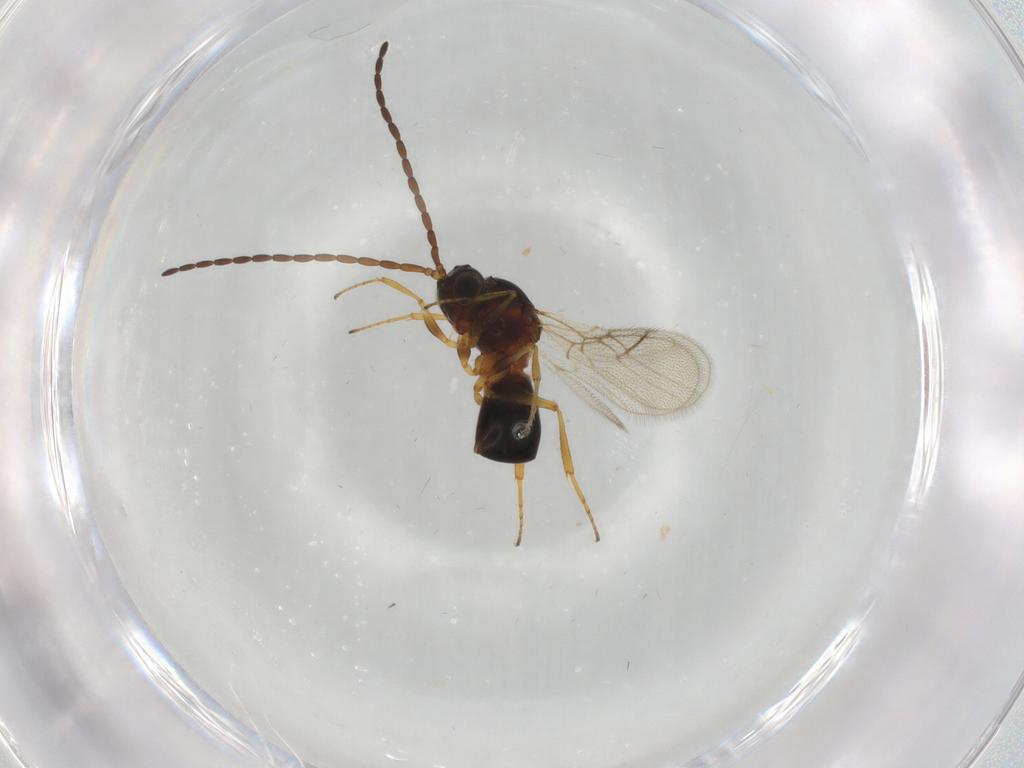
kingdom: Animalia
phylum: Arthropoda
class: Insecta
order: Hymenoptera
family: Figitidae
